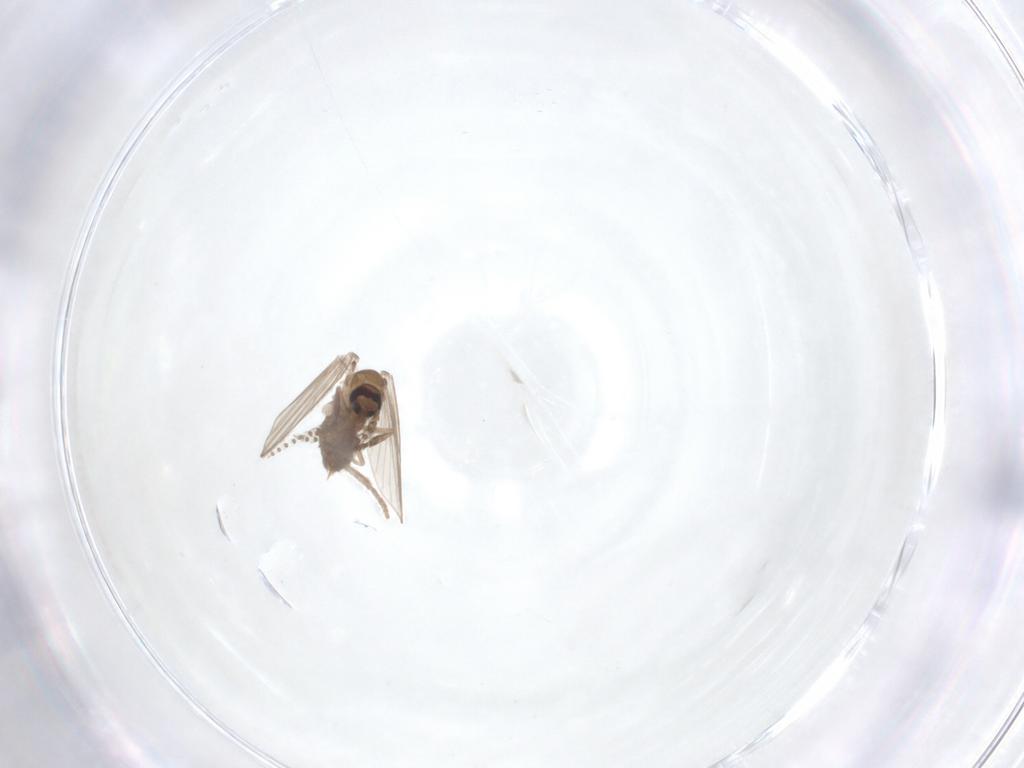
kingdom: Animalia
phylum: Arthropoda
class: Insecta
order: Diptera
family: Psychodidae
